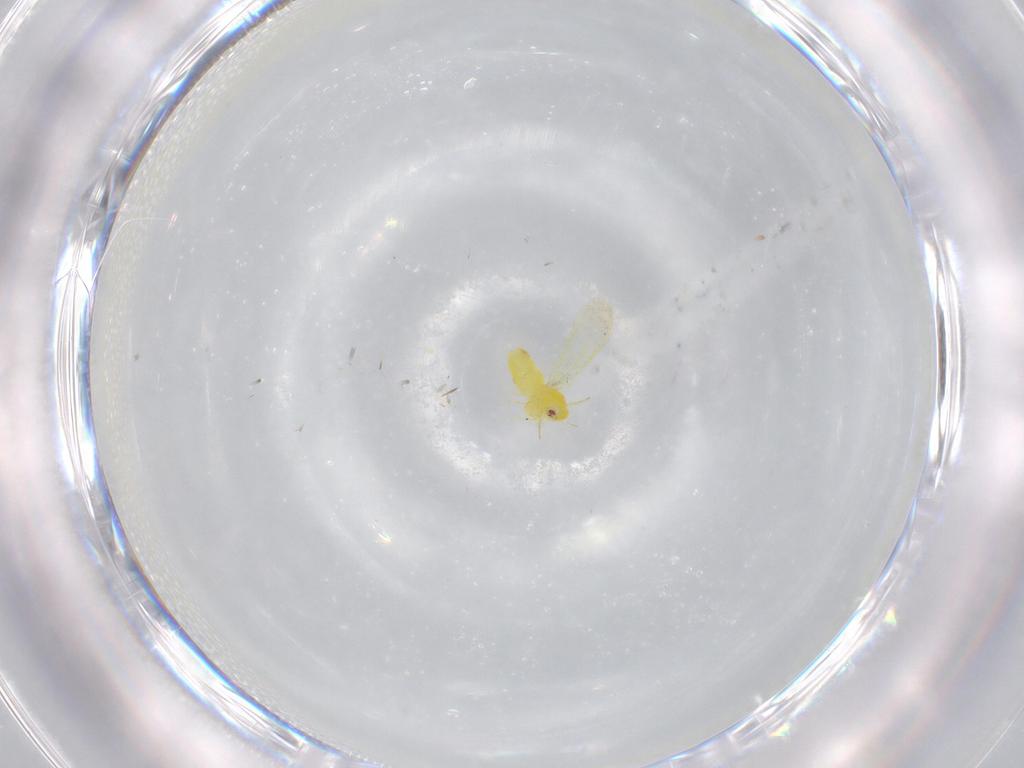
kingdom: Animalia
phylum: Arthropoda
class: Insecta
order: Hemiptera
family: Aleyrodidae
